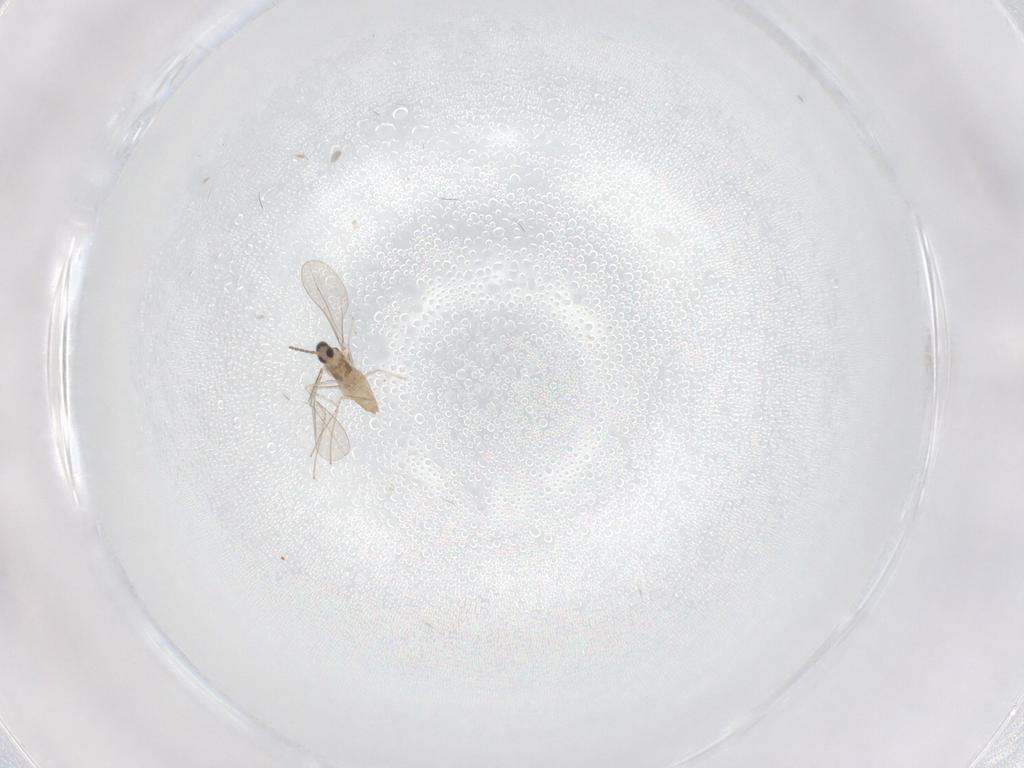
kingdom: Animalia
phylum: Arthropoda
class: Insecta
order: Diptera
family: Cecidomyiidae
